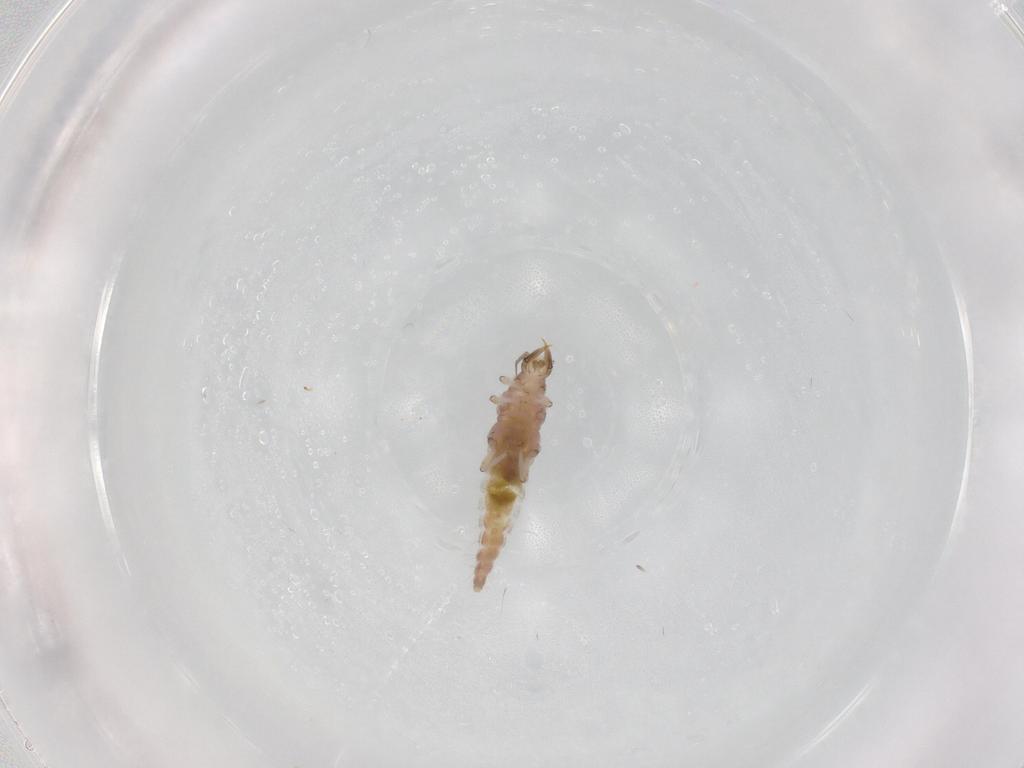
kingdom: Animalia
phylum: Arthropoda
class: Insecta
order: Neuroptera
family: Hemerobiidae
